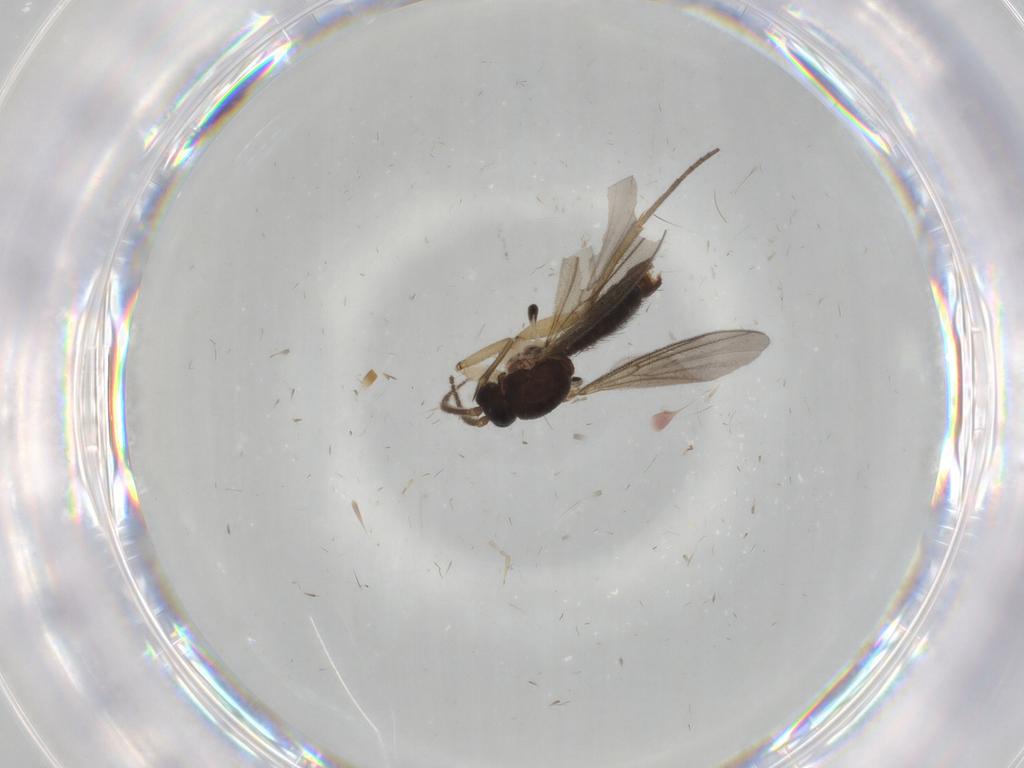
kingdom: Animalia
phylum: Arthropoda
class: Insecta
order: Diptera
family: Mycetophilidae
